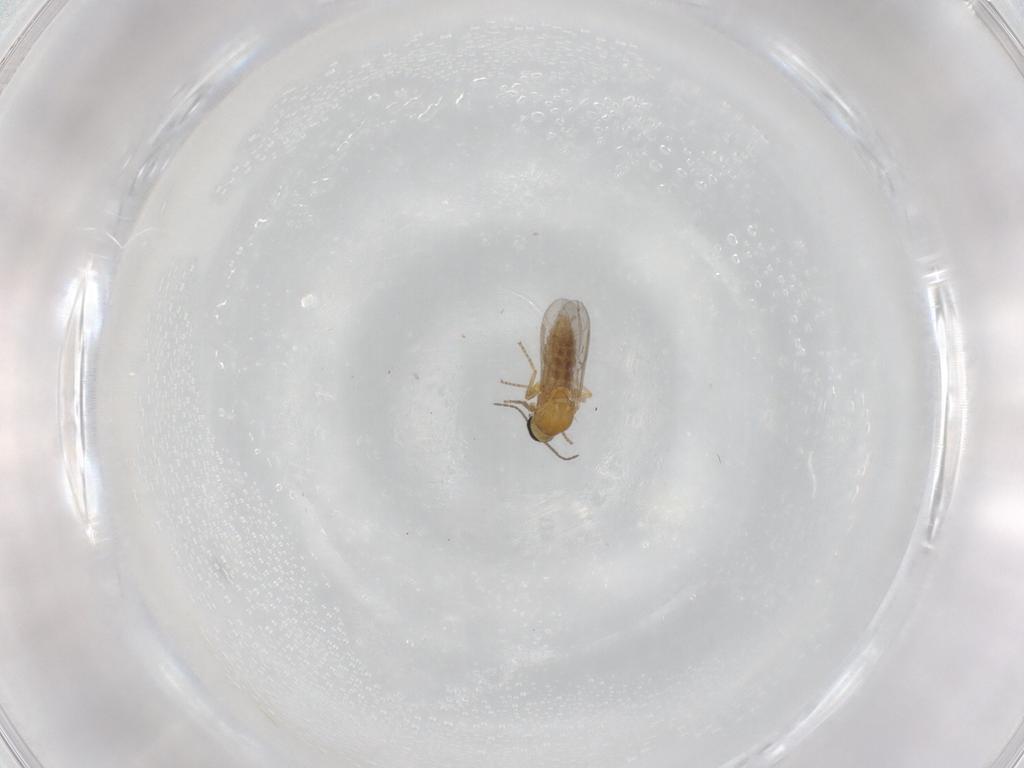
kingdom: Animalia
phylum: Arthropoda
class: Insecta
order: Diptera
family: Ceratopogonidae
